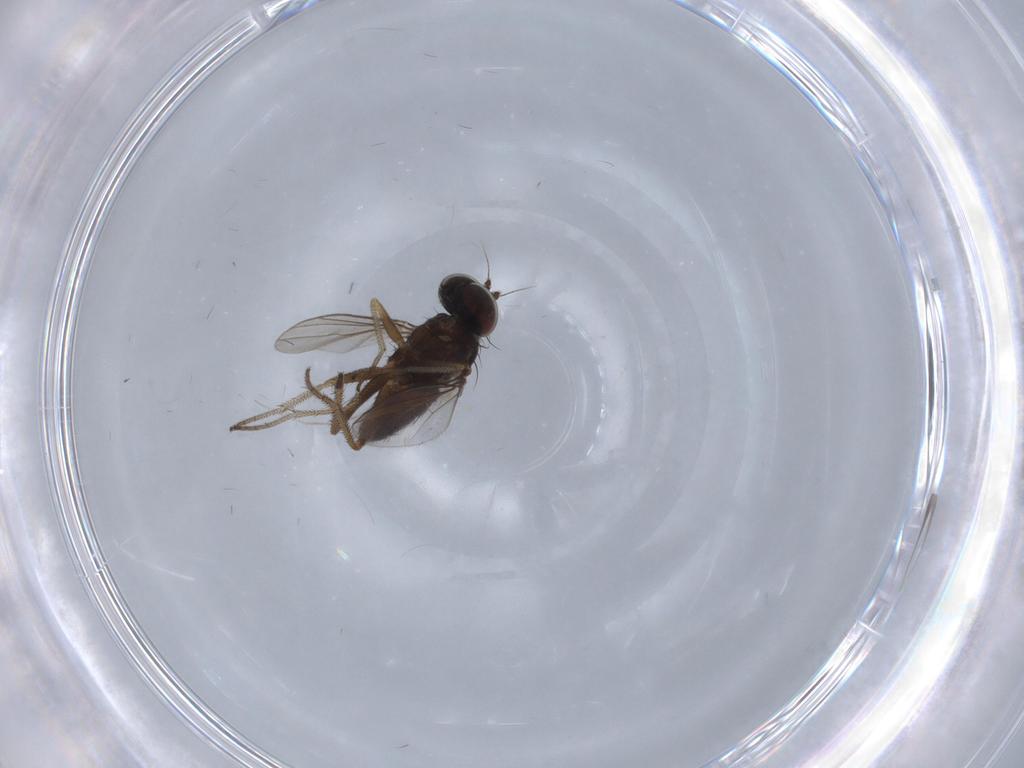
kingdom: Animalia
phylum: Arthropoda
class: Insecta
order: Diptera
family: Chironomidae
